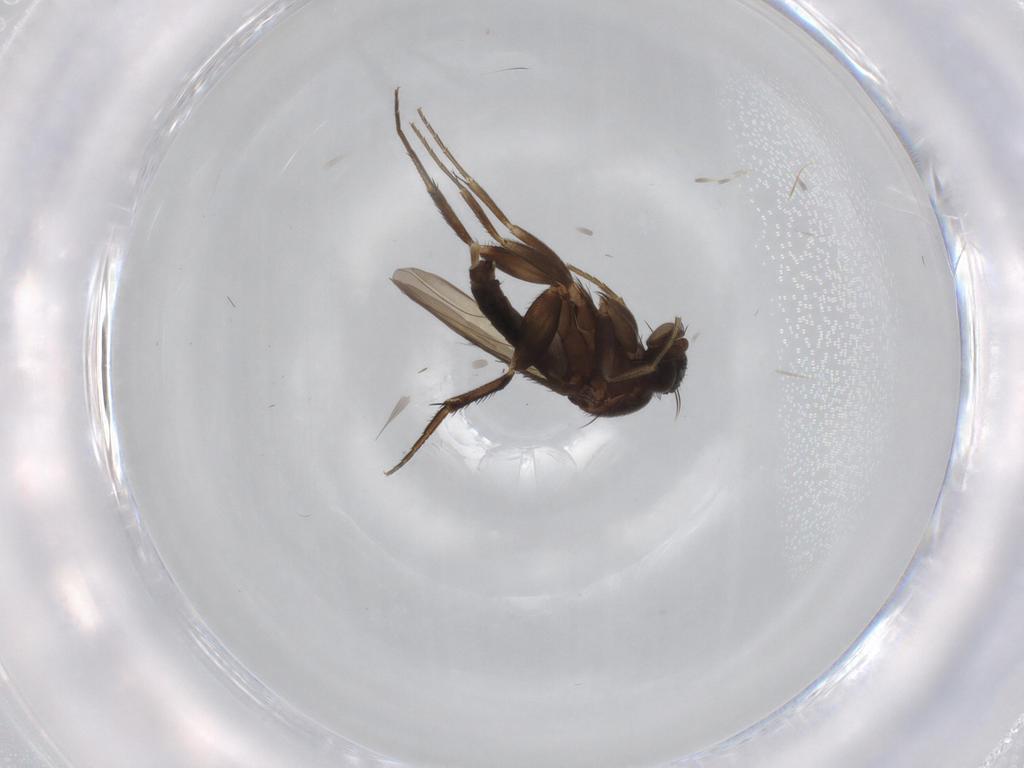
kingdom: Animalia
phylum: Arthropoda
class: Insecta
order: Diptera
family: Phoridae
